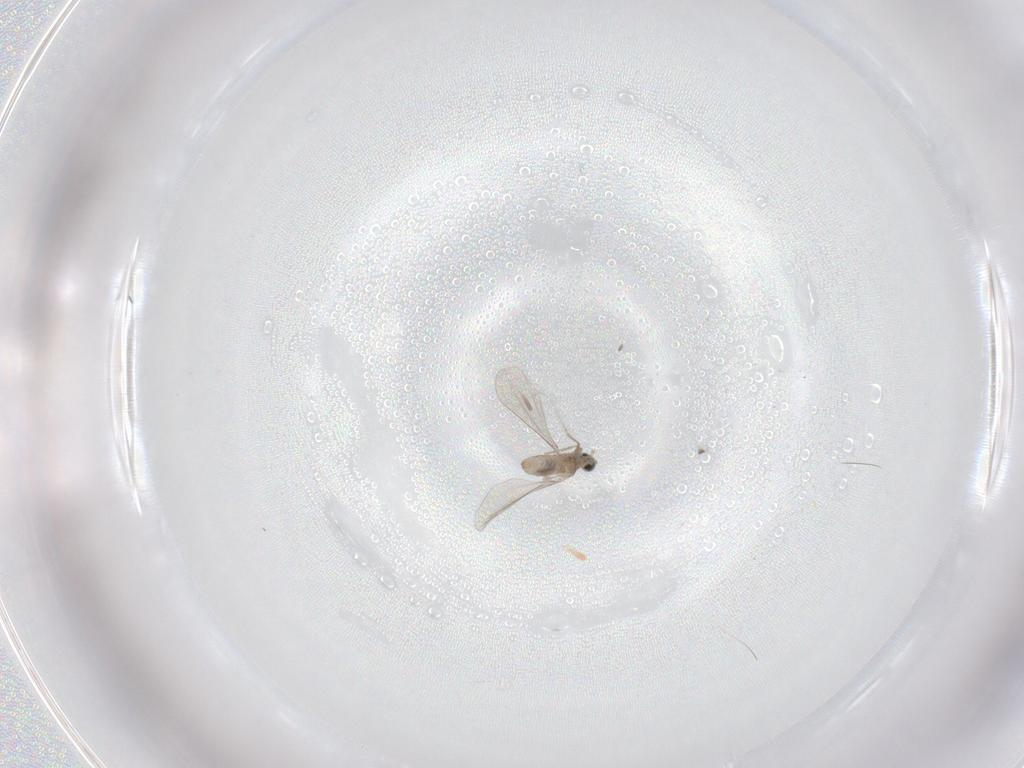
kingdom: Animalia
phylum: Arthropoda
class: Insecta
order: Diptera
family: Cecidomyiidae
